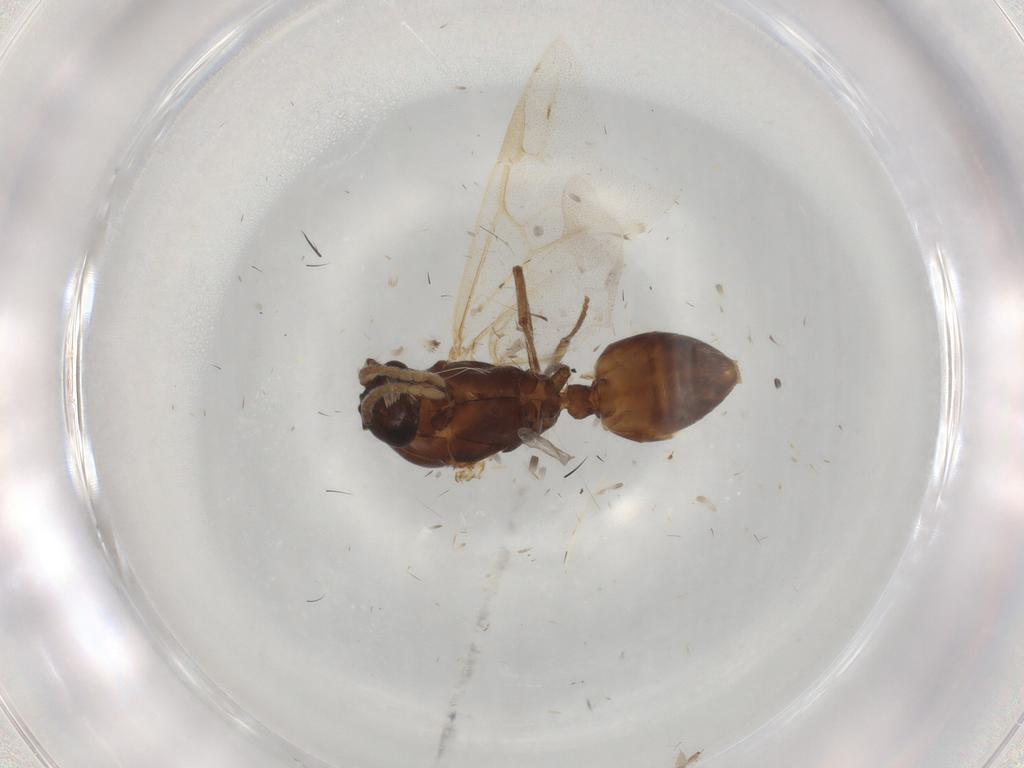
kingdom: Animalia
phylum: Arthropoda
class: Insecta
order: Hymenoptera
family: Formicidae
